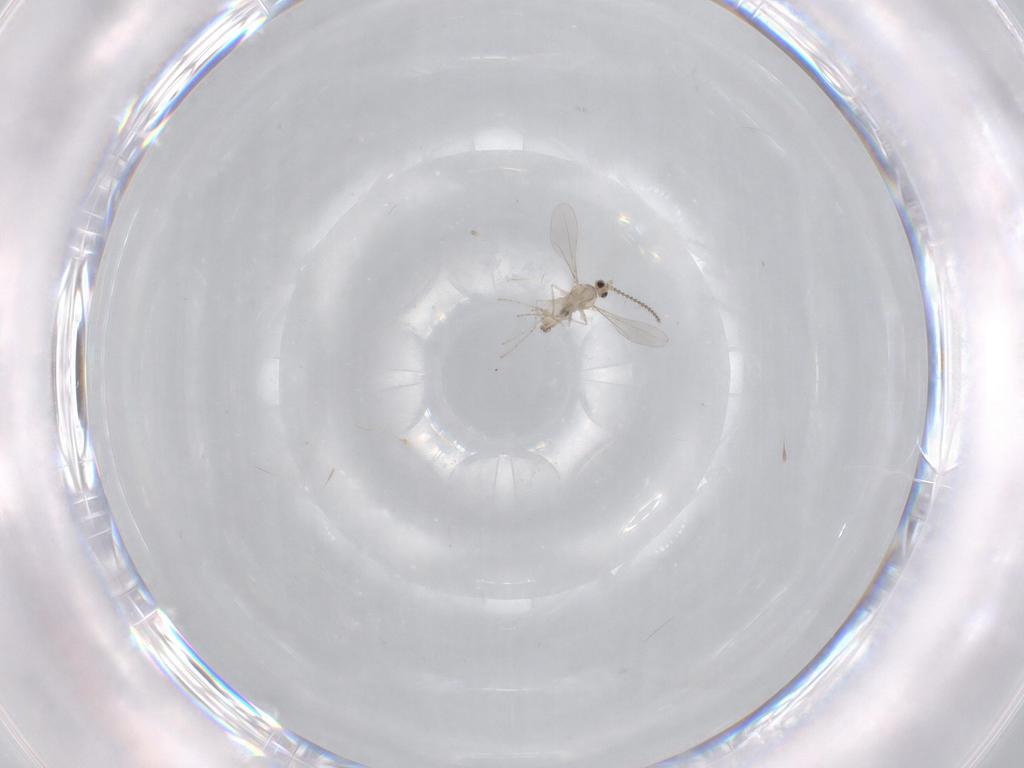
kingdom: Animalia
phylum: Arthropoda
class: Insecta
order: Diptera
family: Cecidomyiidae
